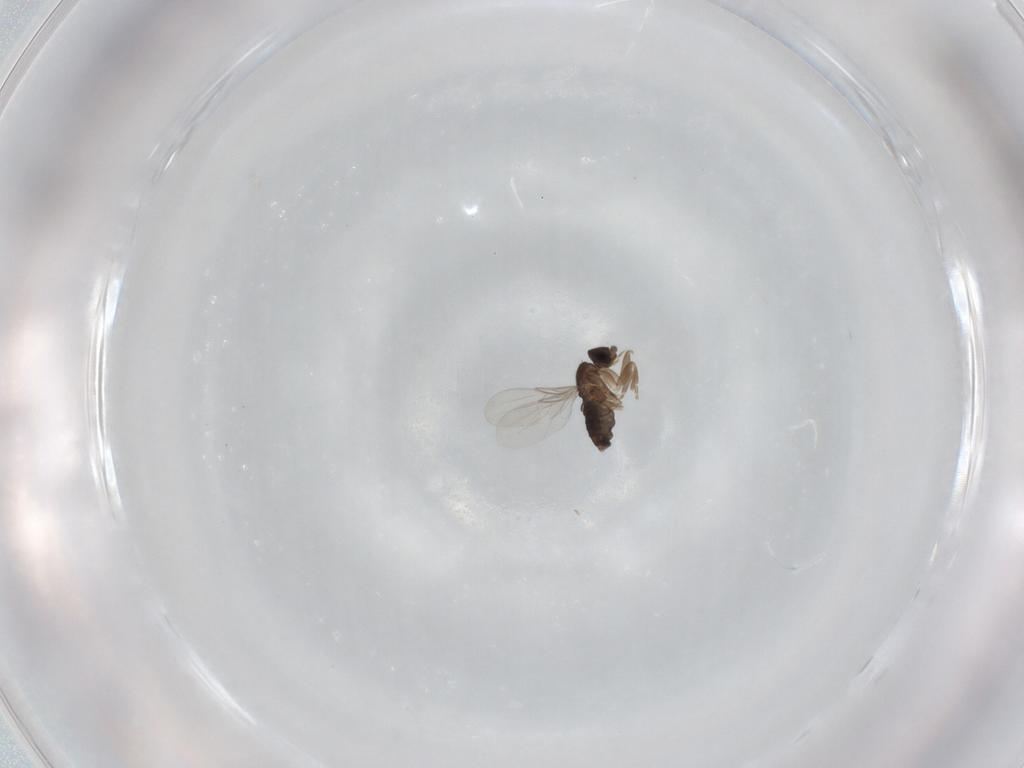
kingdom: Animalia
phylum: Arthropoda
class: Insecta
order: Diptera
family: Phoridae
